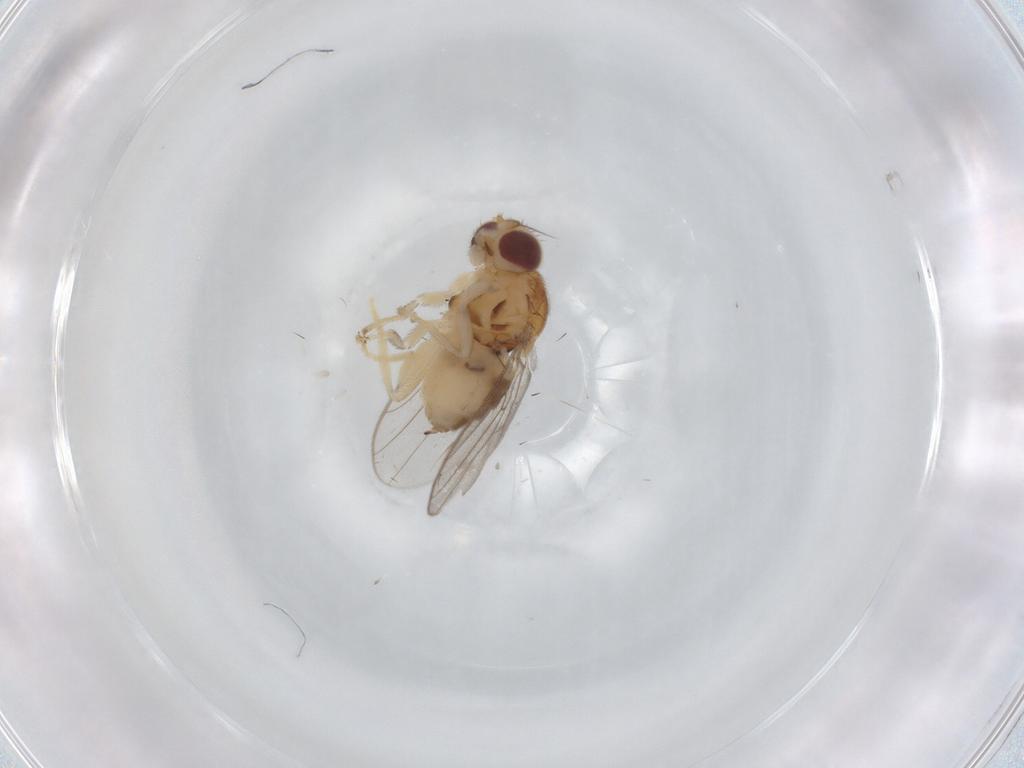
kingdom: Animalia
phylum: Arthropoda
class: Insecta
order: Diptera
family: Chloropidae
